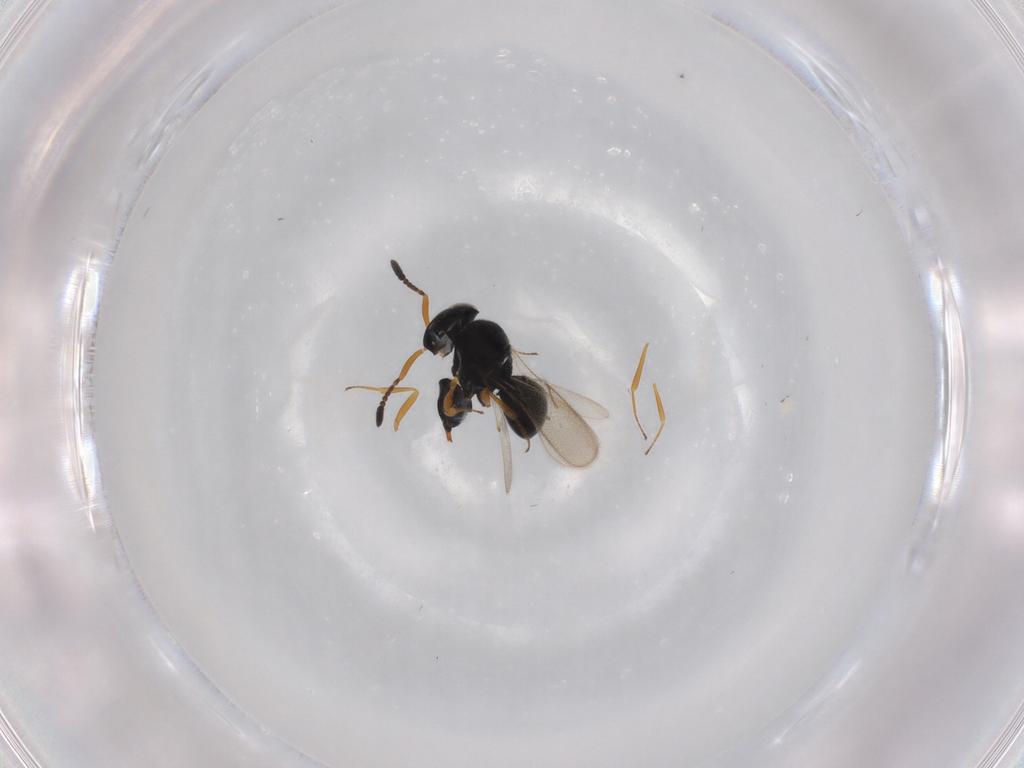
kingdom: Animalia
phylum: Arthropoda
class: Insecta
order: Hymenoptera
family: Scelionidae
